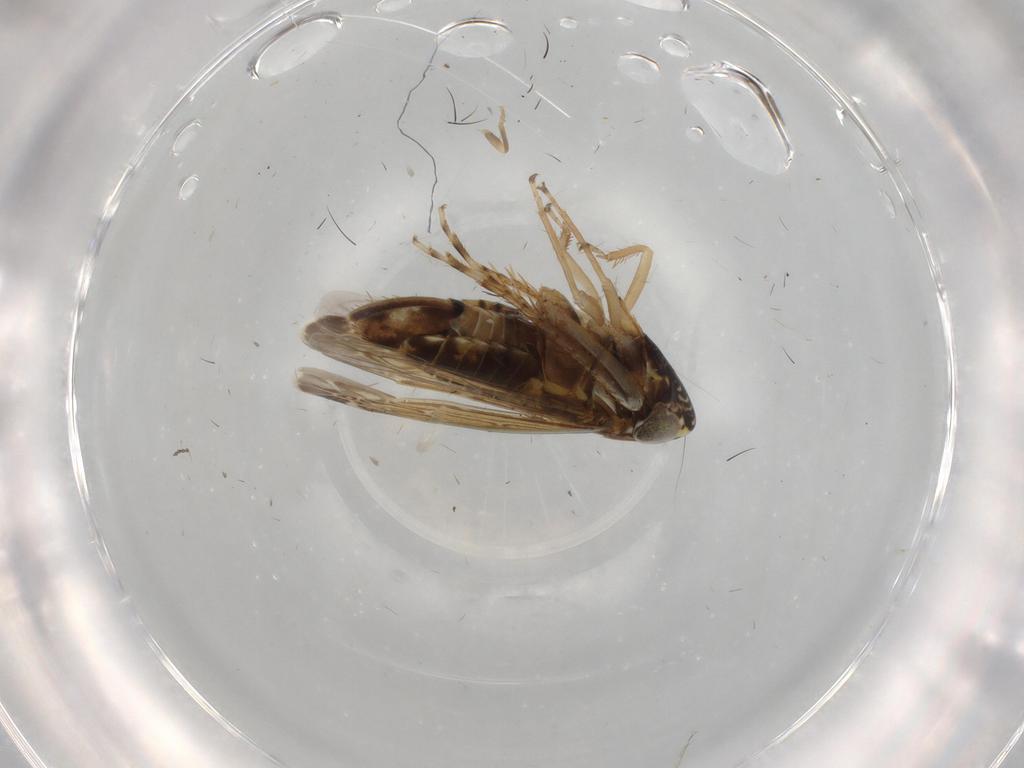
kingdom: Animalia
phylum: Arthropoda
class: Insecta
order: Hemiptera
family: Cicadellidae
